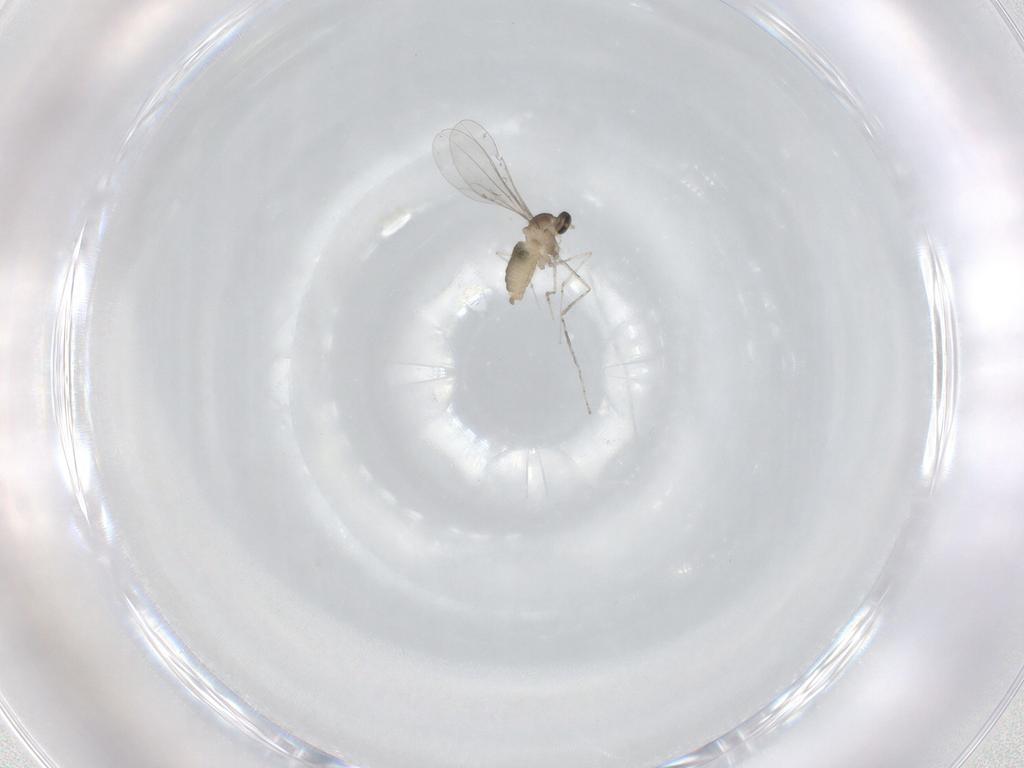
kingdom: Animalia
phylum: Arthropoda
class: Insecta
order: Diptera
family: Cecidomyiidae
